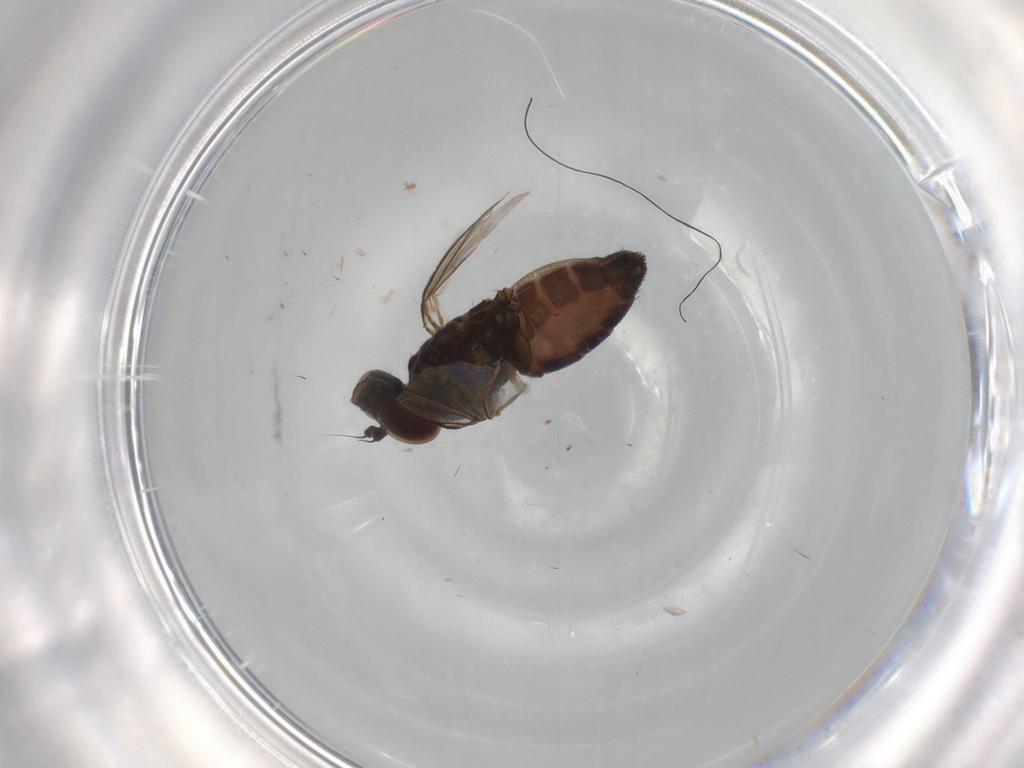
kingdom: Animalia
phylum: Arthropoda
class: Insecta
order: Diptera
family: Dolichopodidae
